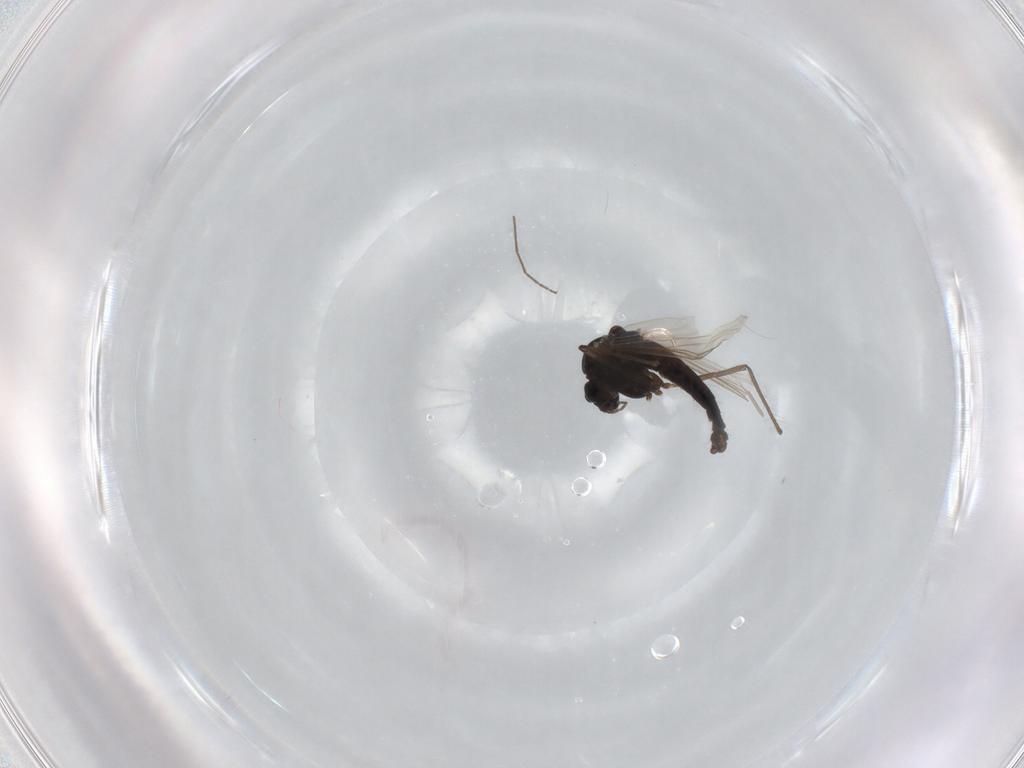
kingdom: Animalia
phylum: Arthropoda
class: Insecta
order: Diptera
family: Chironomidae
